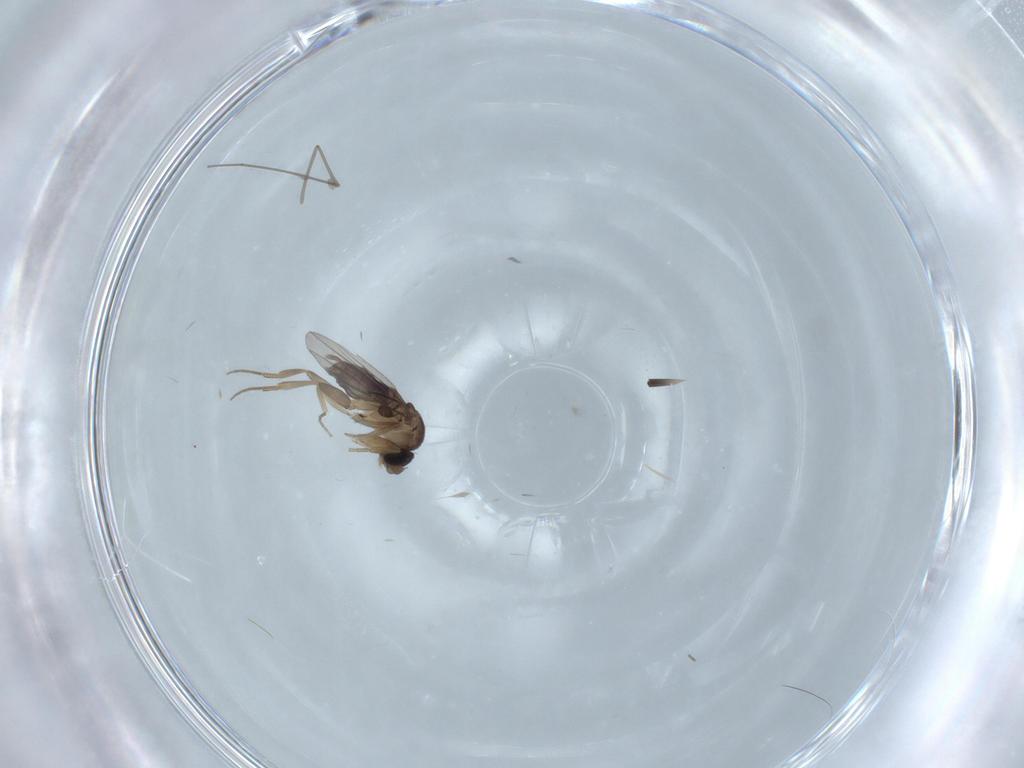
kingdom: Animalia
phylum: Arthropoda
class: Insecta
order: Diptera
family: Phoridae
